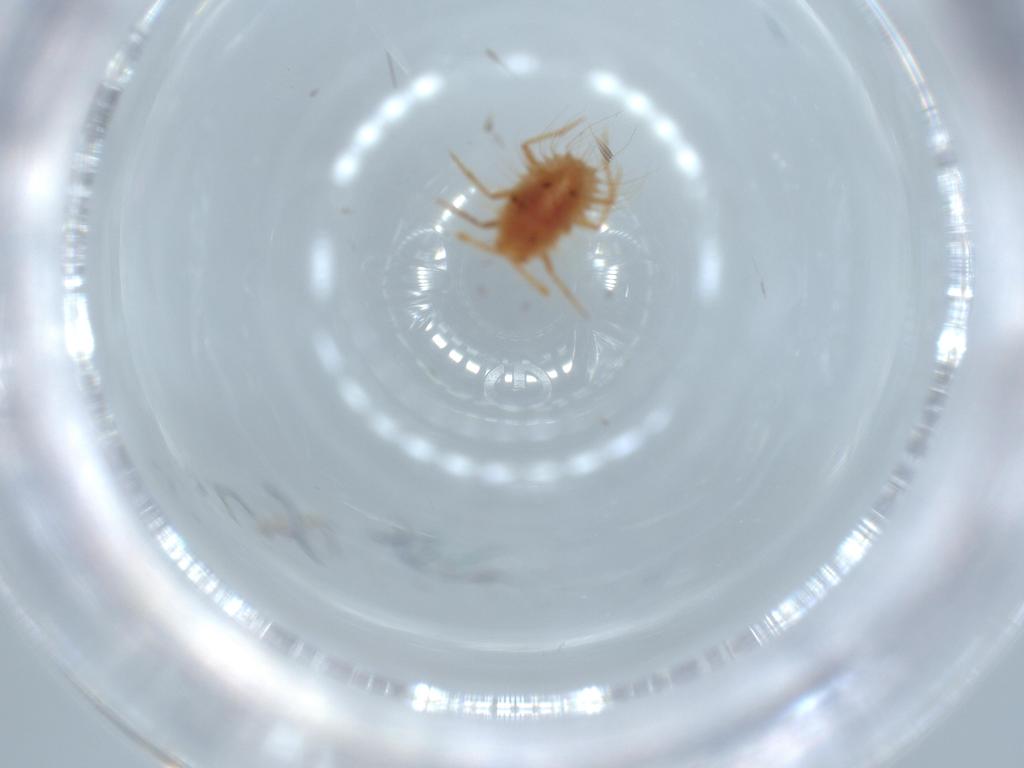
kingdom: Animalia
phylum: Arthropoda
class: Insecta
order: Hemiptera
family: Monophlebidae
